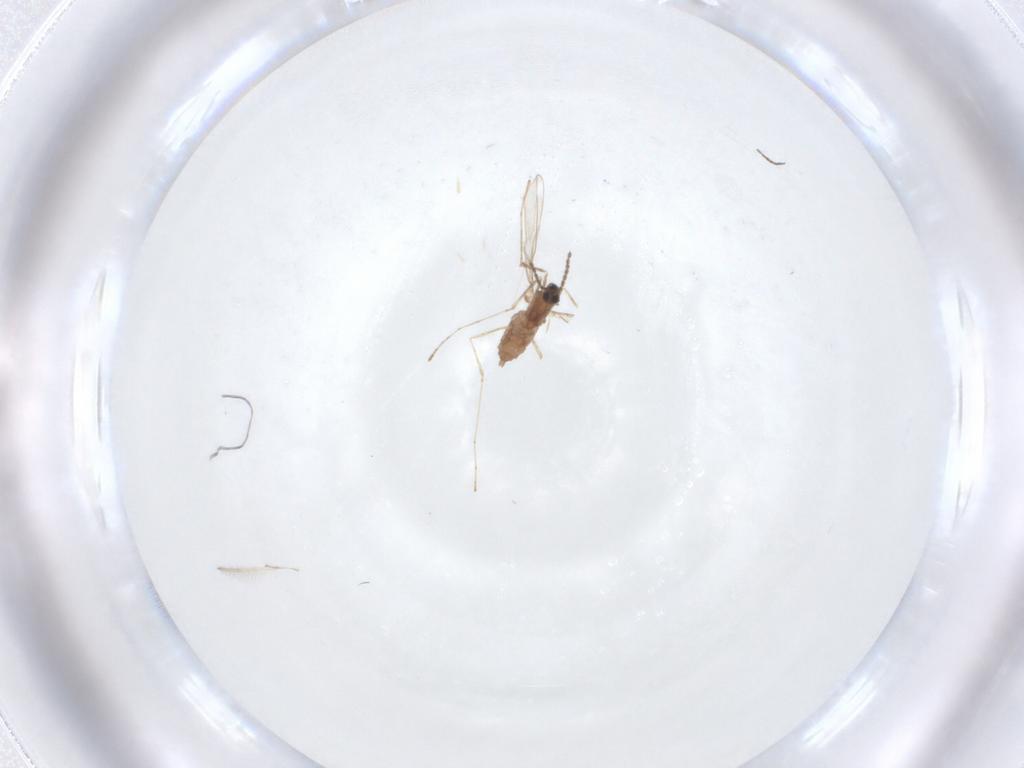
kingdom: Animalia
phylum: Arthropoda
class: Insecta
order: Diptera
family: Cecidomyiidae
